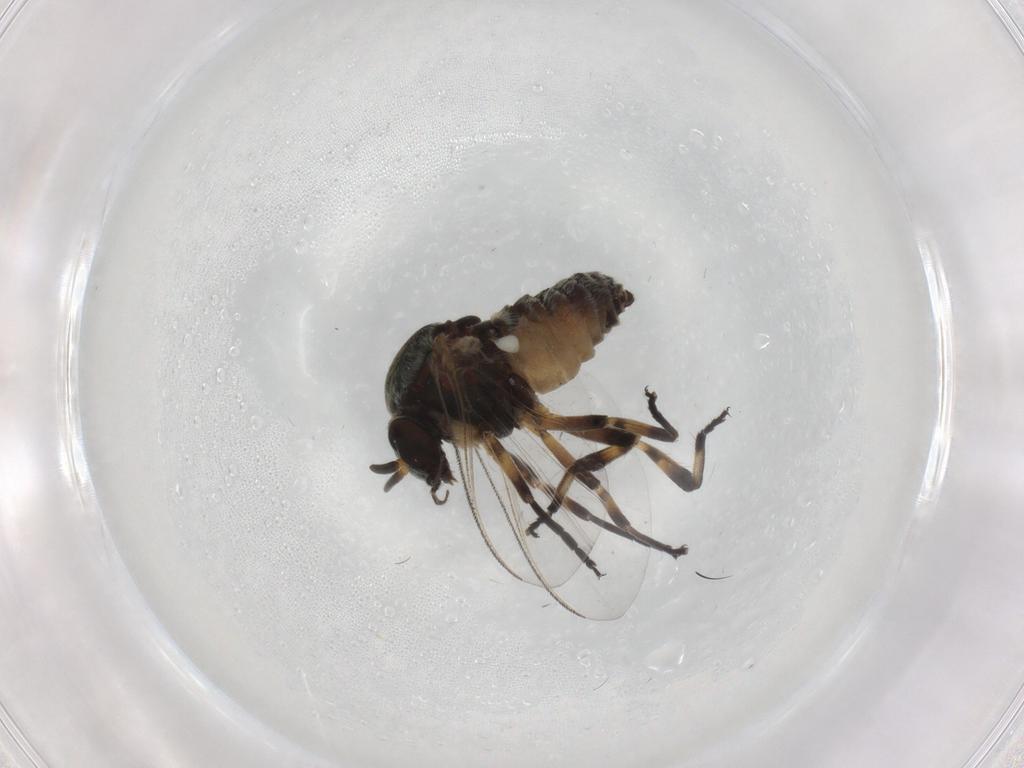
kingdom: Animalia
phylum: Arthropoda
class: Insecta
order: Diptera
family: Simuliidae
